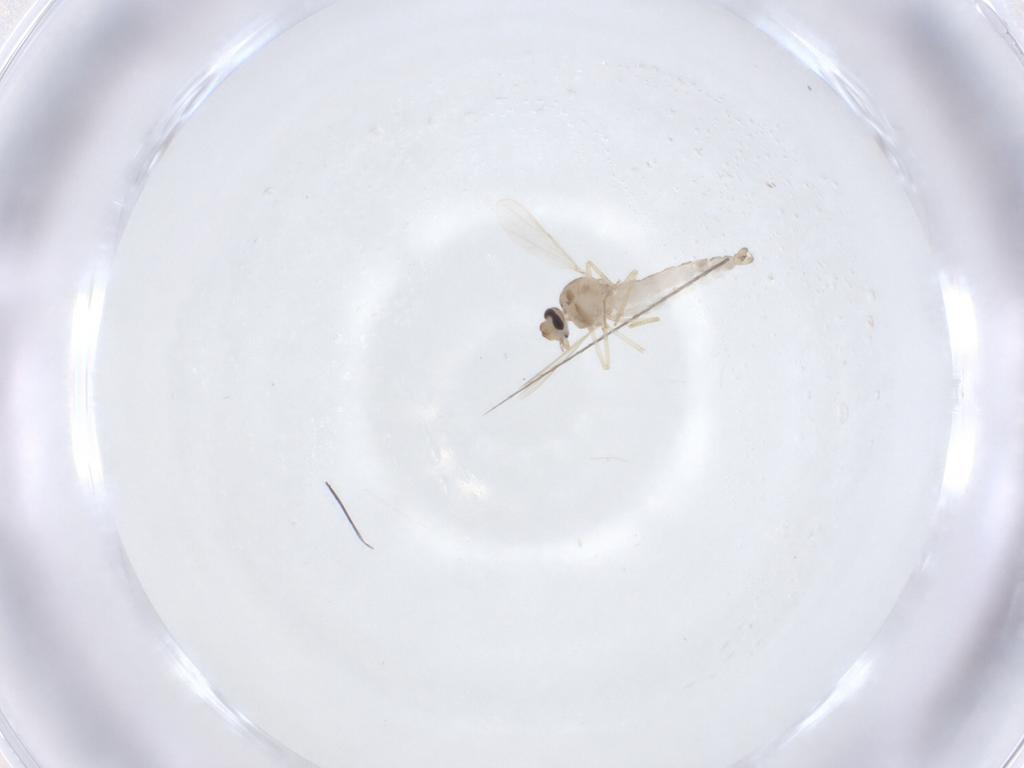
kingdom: Animalia
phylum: Arthropoda
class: Insecta
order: Diptera
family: Ceratopogonidae
